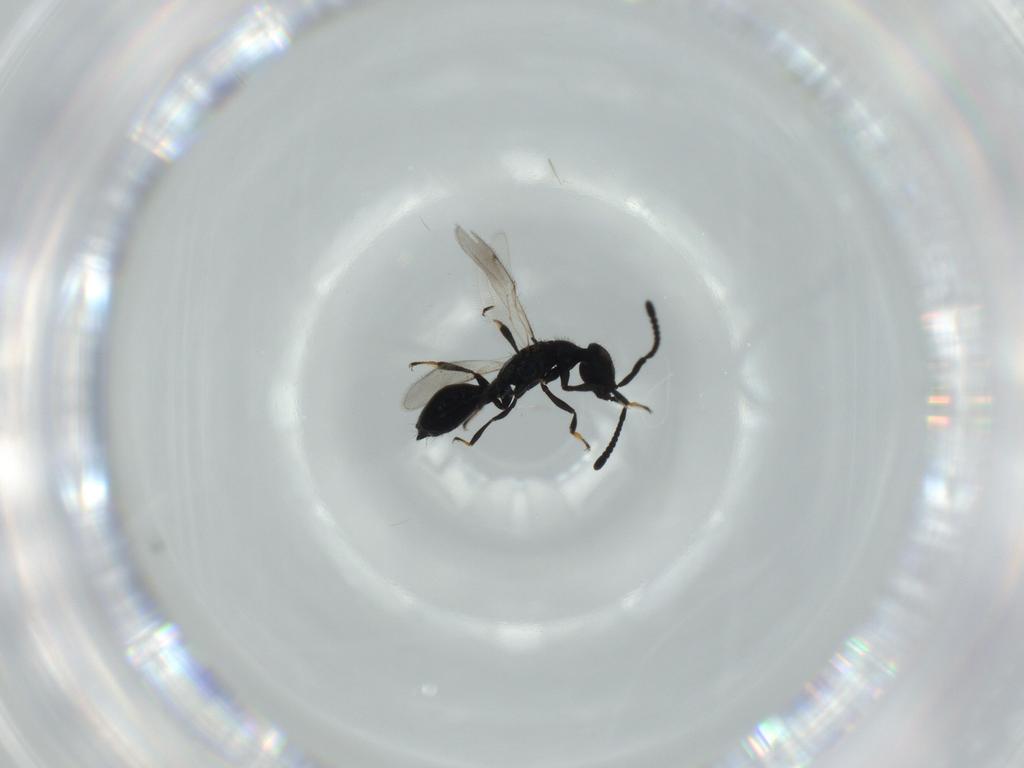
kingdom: Animalia
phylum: Arthropoda
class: Insecta
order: Hymenoptera
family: Diapriidae
